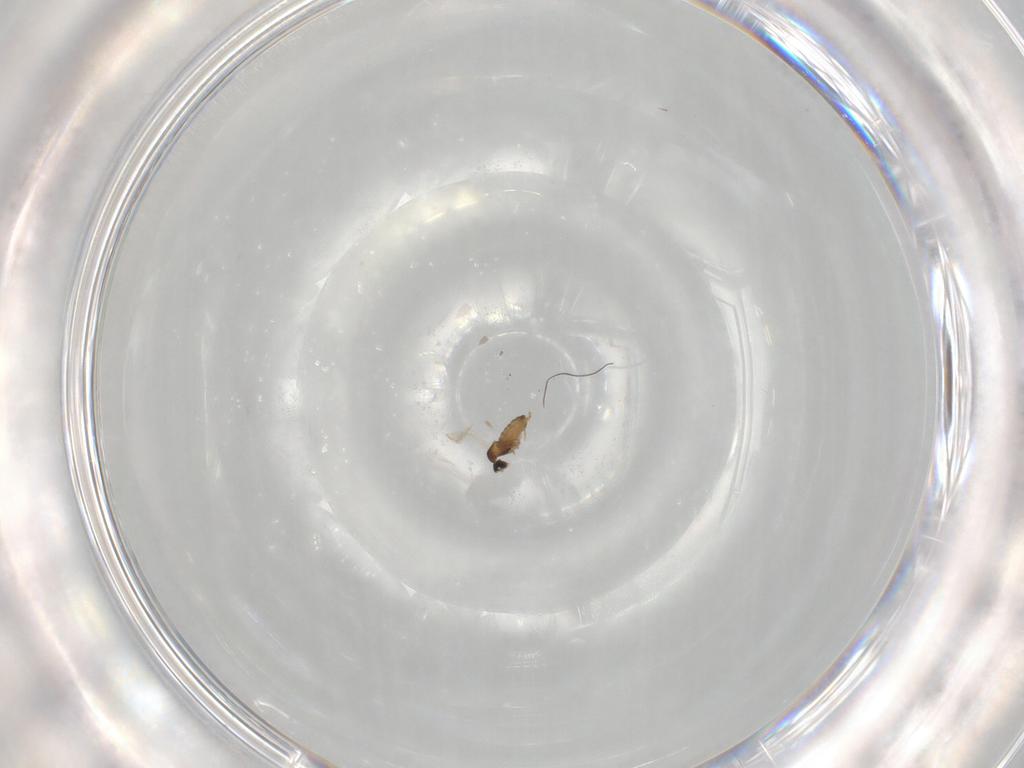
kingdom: Animalia
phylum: Arthropoda
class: Insecta
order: Diptera
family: Cecidomyiidae
